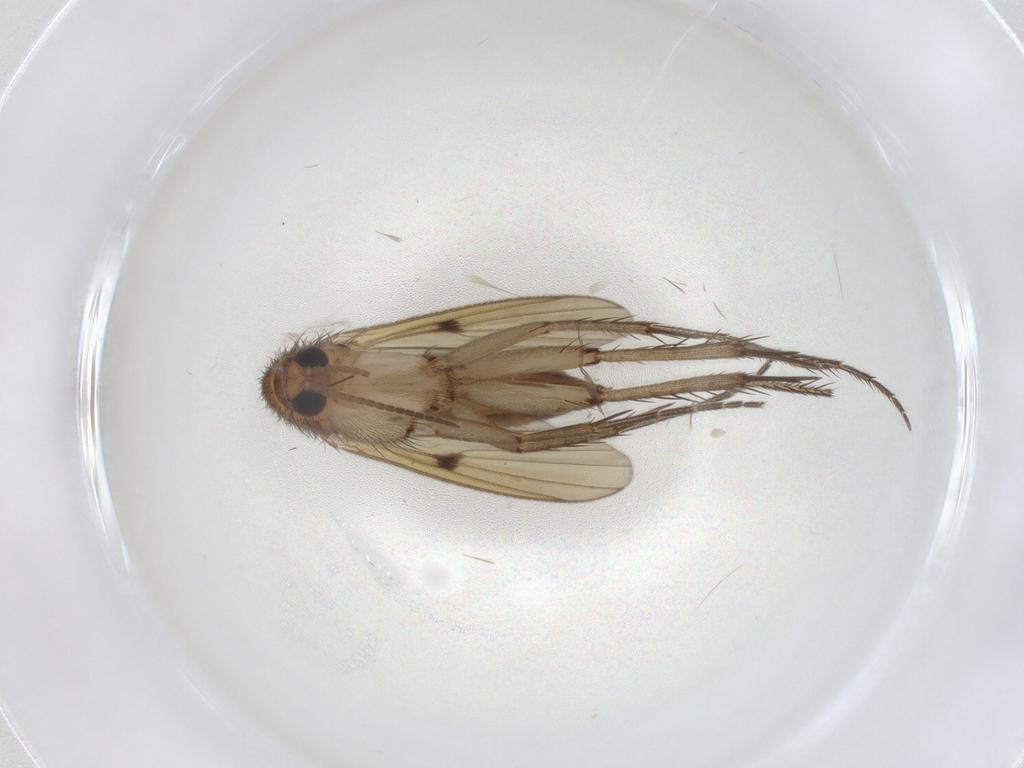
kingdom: Animalia
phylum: Arthropoda
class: Insecta
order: Diptera
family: Mycetophilidae
